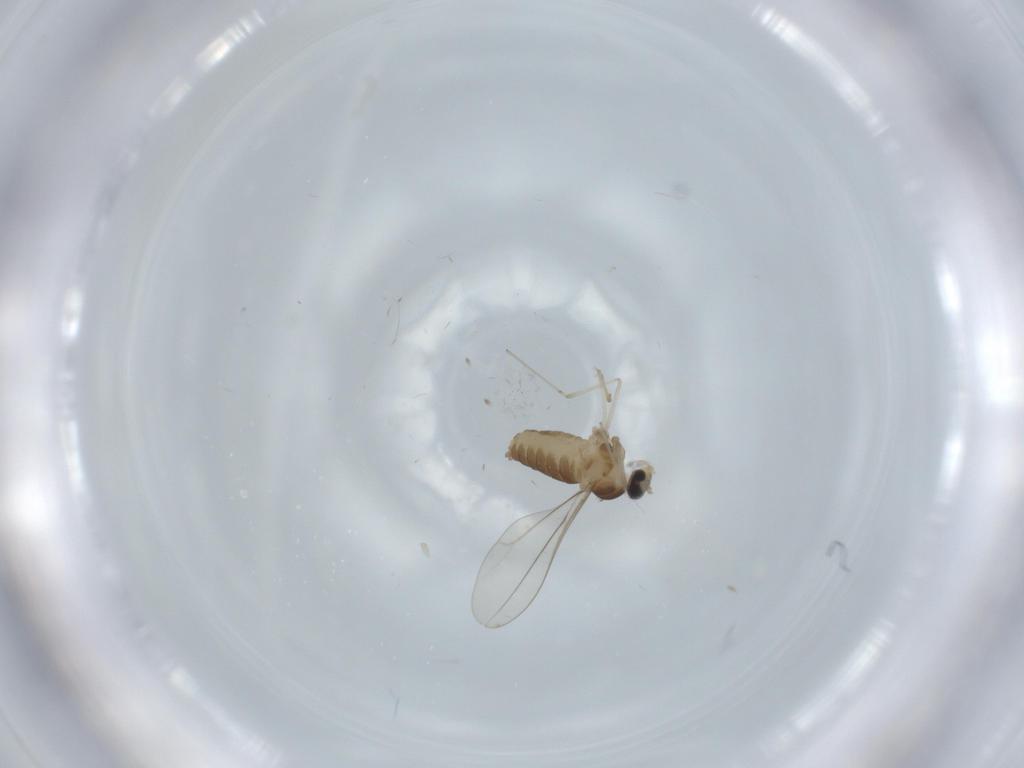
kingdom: Animalia
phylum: Arthropoda
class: Insecta
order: Diptera
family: Cecidomyiidae
